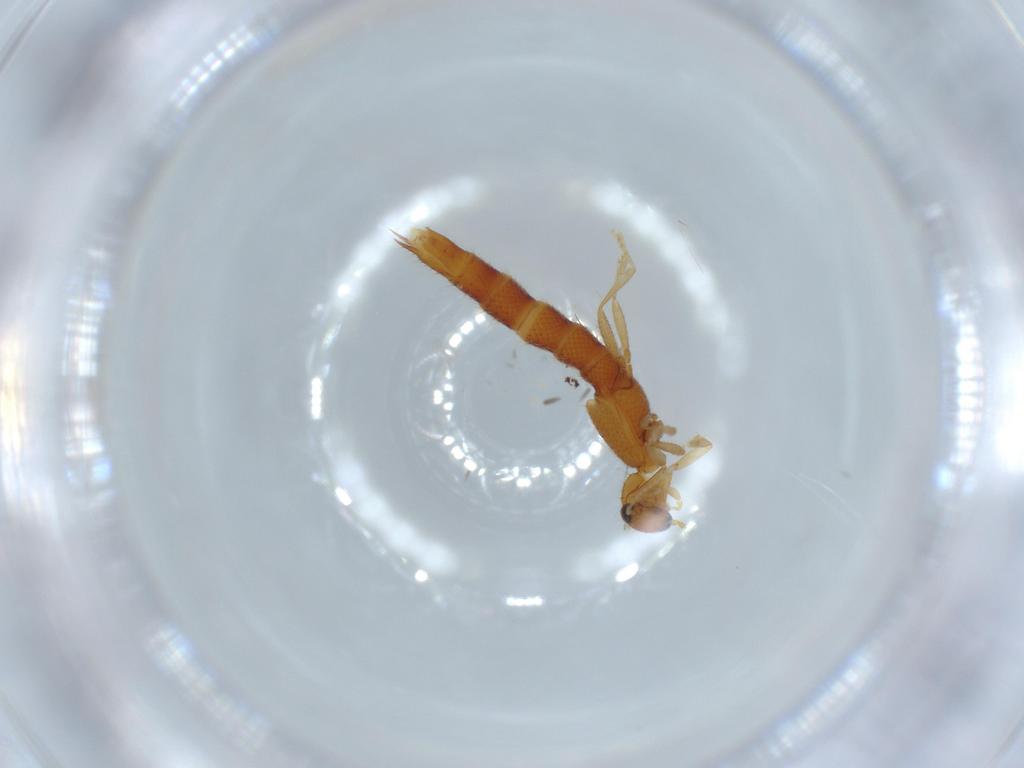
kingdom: Animalia
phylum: Arthropoda
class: Insecta
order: Coleoptera
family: Staphylinidae
